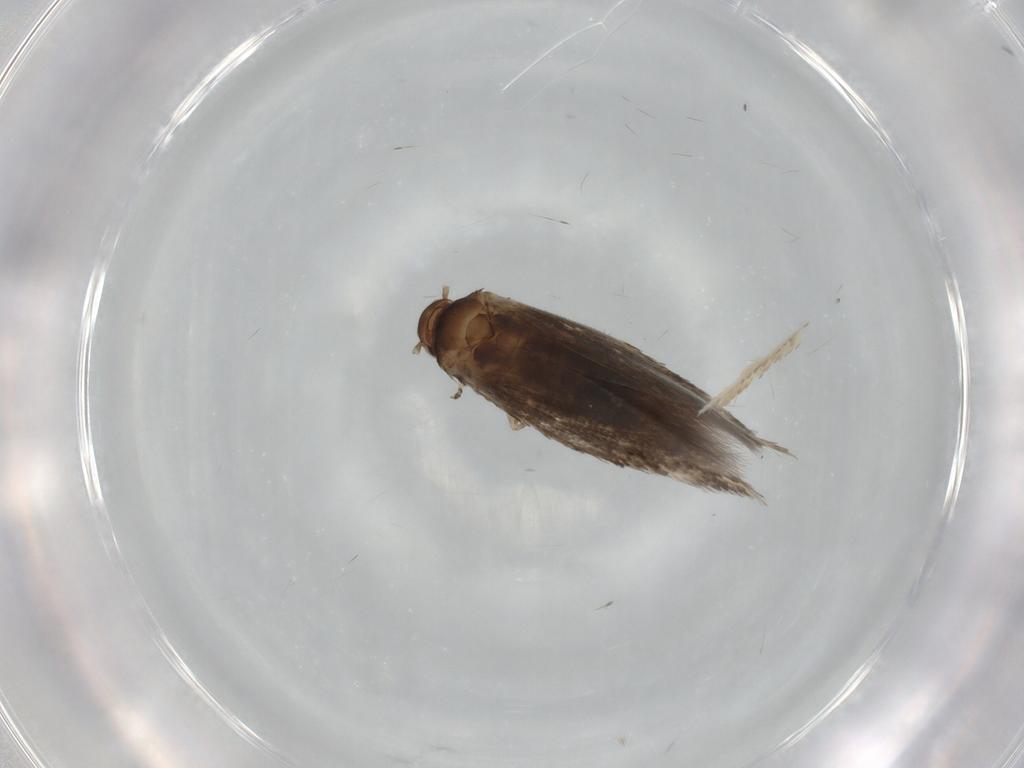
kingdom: Animalia
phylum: Arthropoda
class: Insecta
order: Lepidoptera
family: Elachistidae
